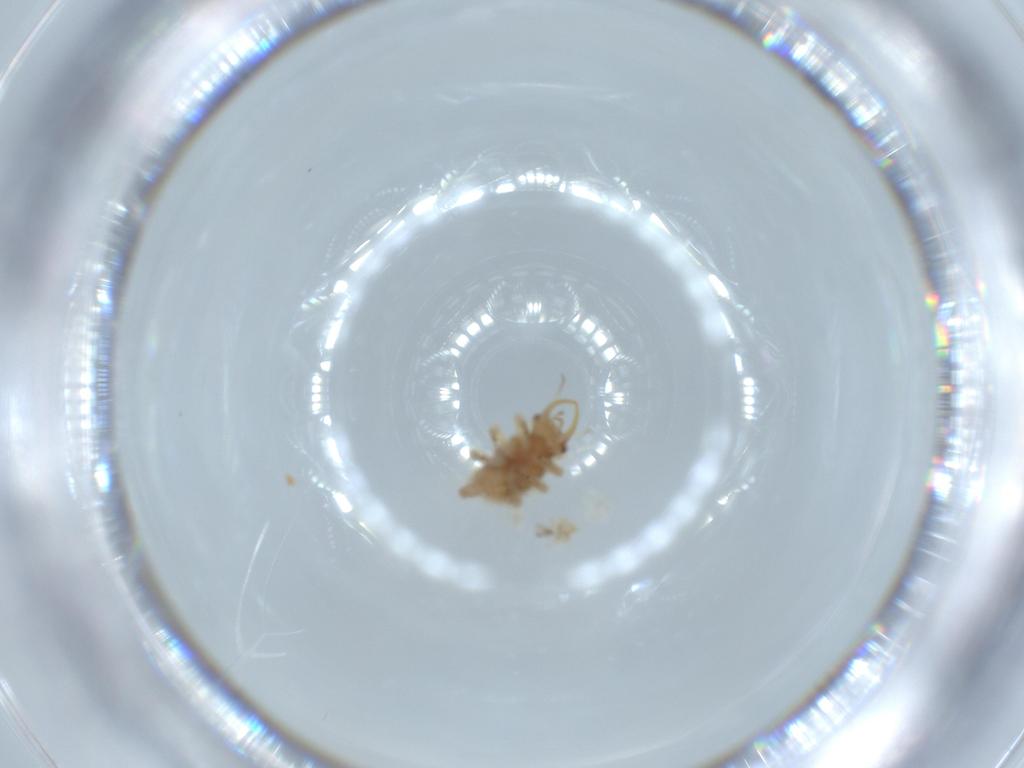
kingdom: Animalia
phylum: Arthropoda
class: Insecta
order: Neuroptera
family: Chrysopidae
